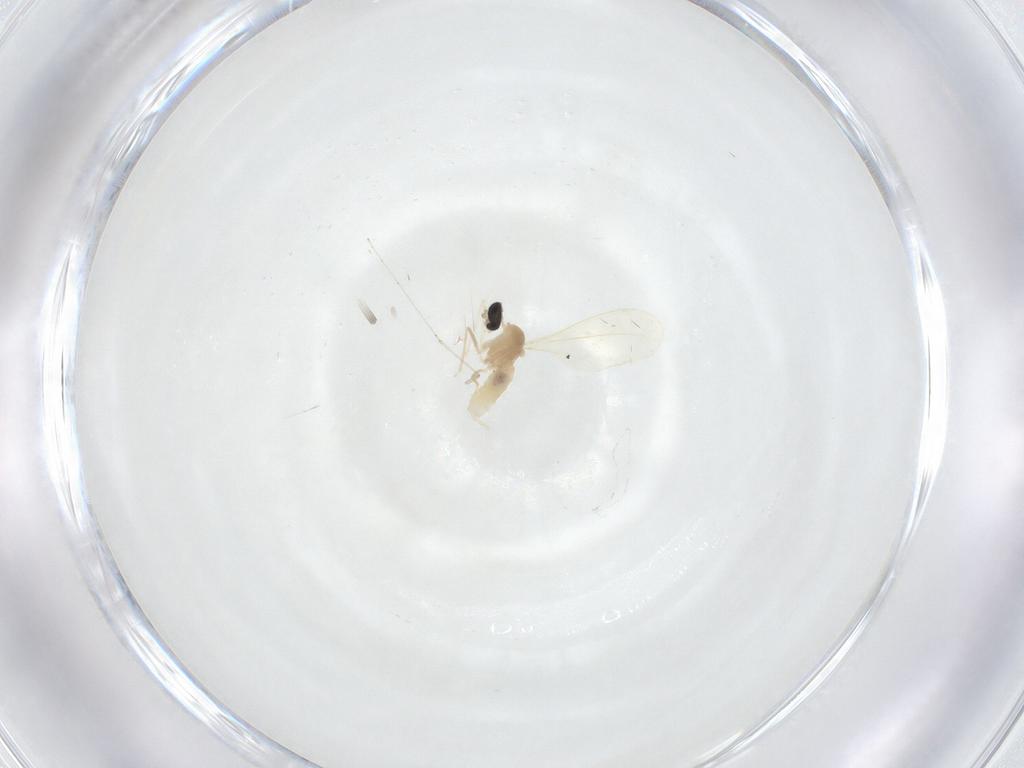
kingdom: Animalia
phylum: Arthropoda
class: Insecta
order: Diptera
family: Cecidomyiidae
